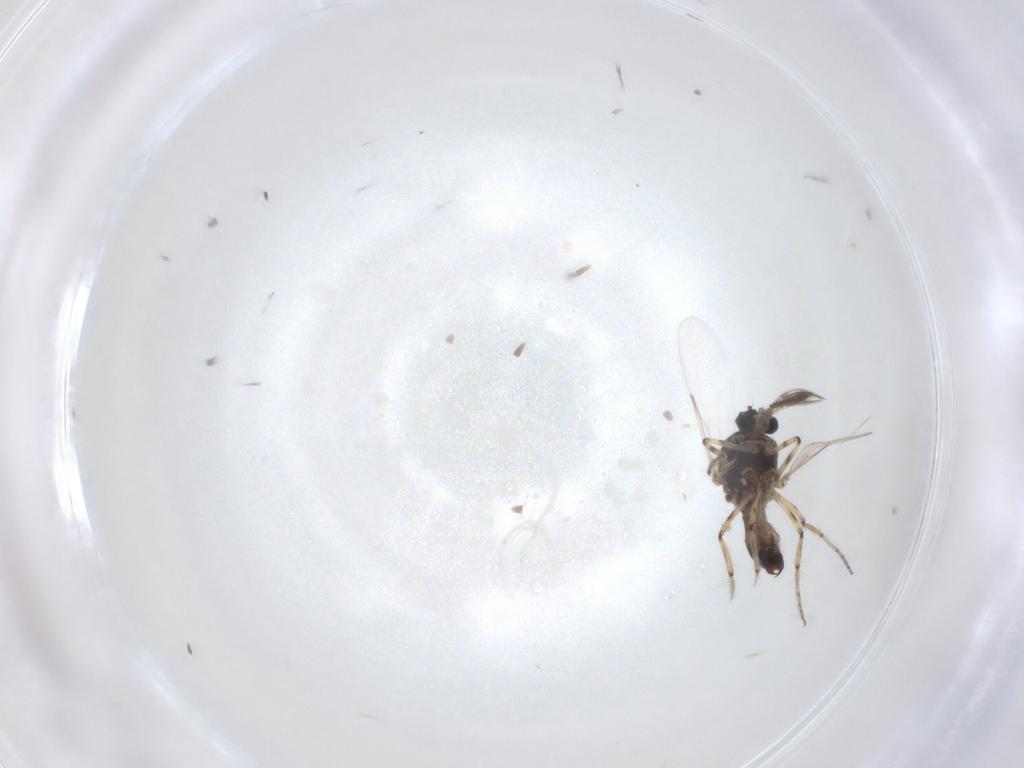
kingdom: Animalia
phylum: Arthropoda
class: Insecta
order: Diptera
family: Ceratopogonidae
